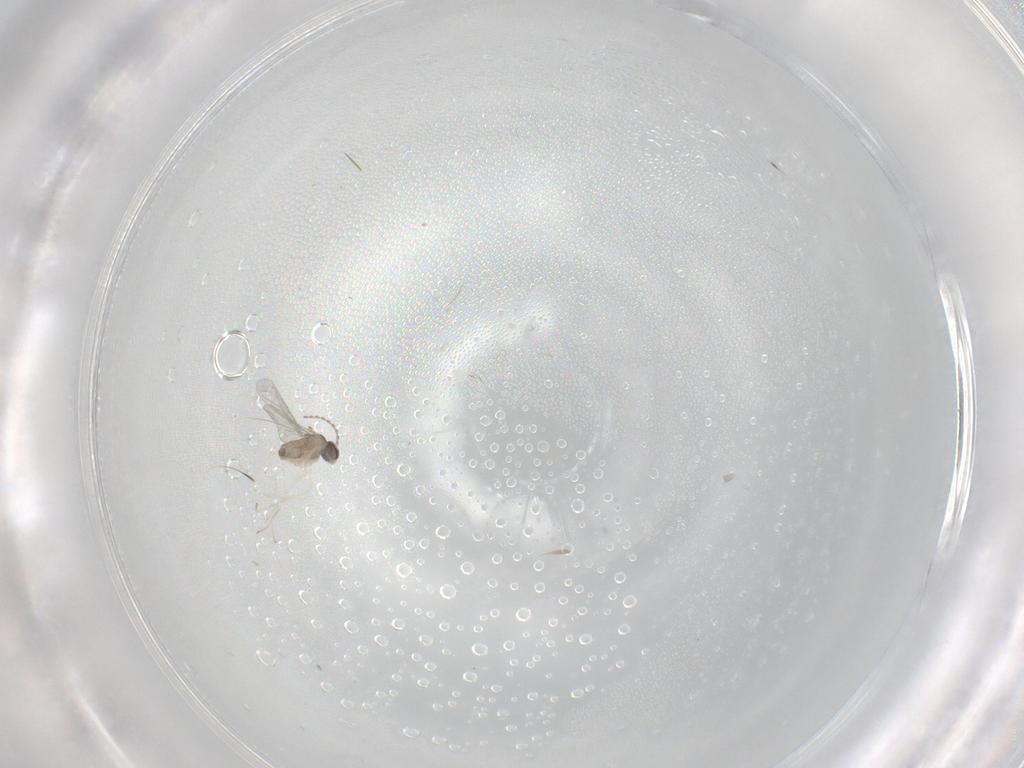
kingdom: Animalia
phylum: Arthropoda
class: Insecta
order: Diptera
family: Cecidomyiidae
